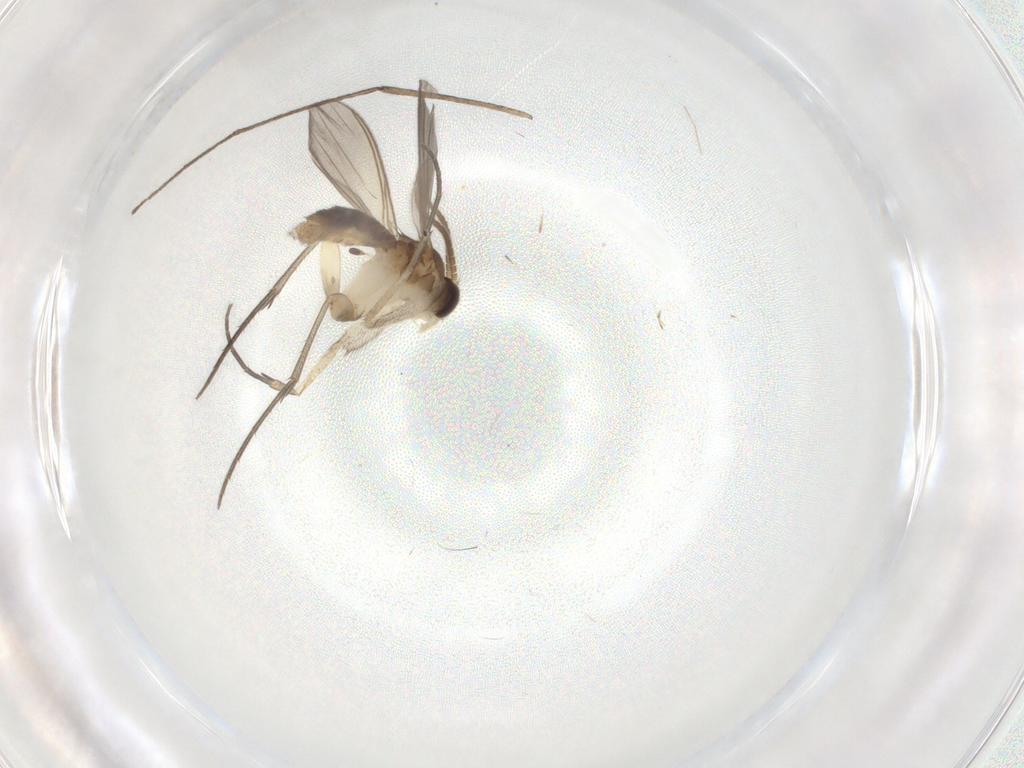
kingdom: Animalia
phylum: Arthropoda
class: Insecta
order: Diptera
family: Mycetophilidae
